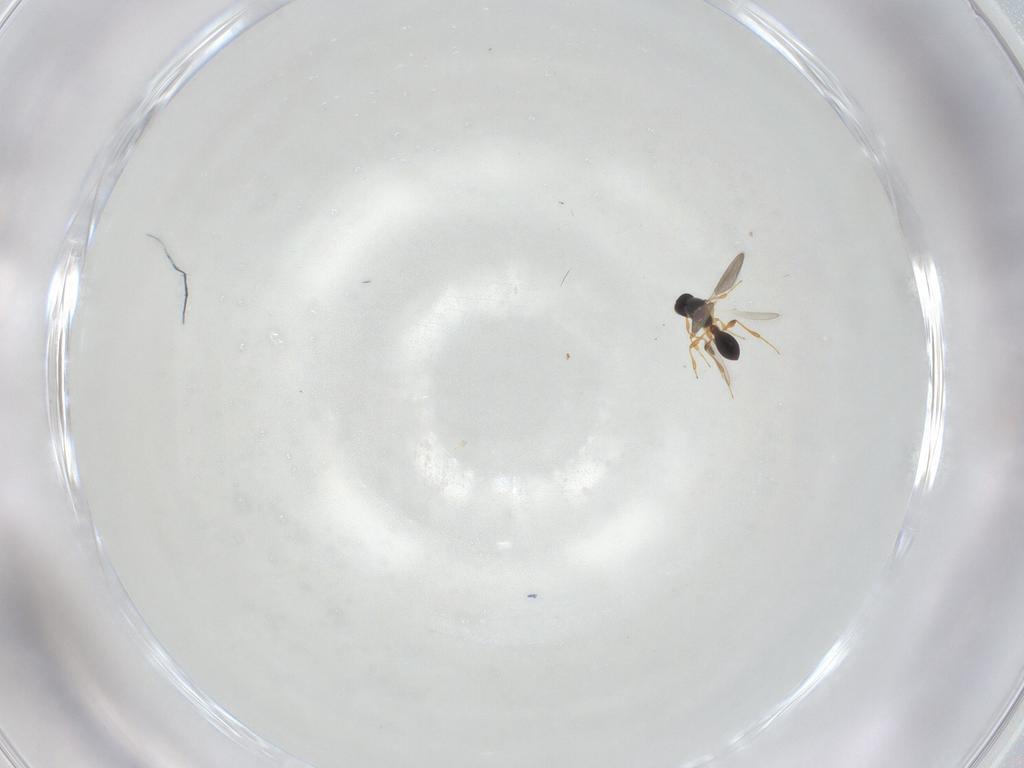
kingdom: Animalia
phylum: Arthropoda
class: Insecta
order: Hymenoptera
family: Platygastridae
